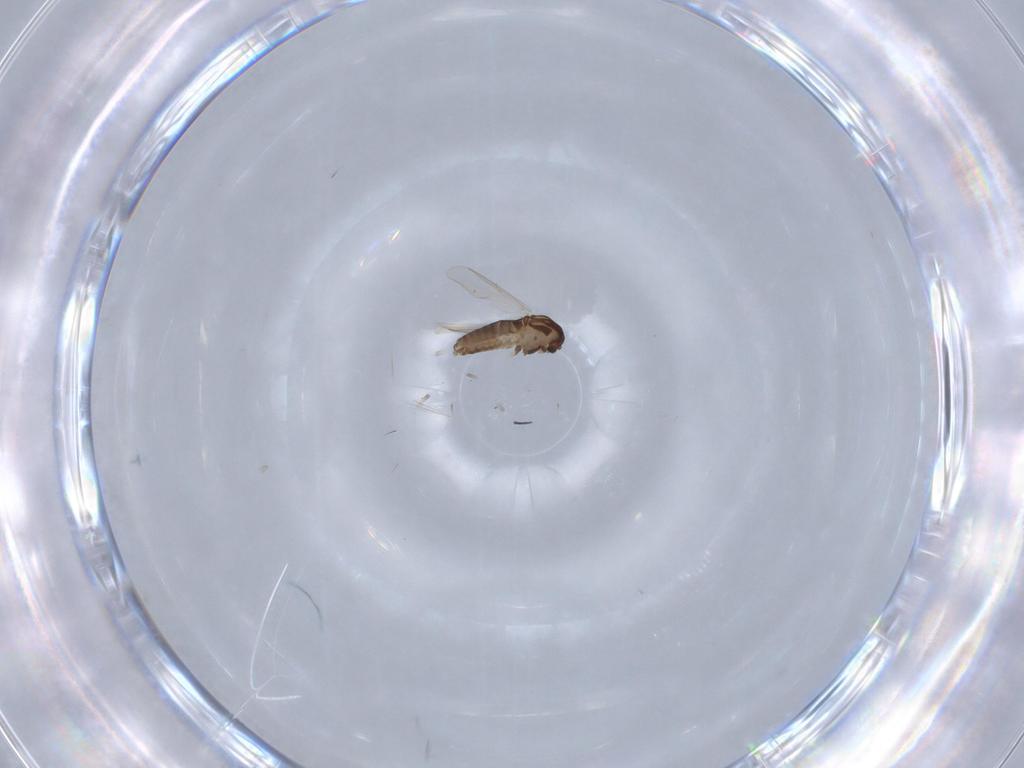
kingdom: Animalia
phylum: Arthropoda
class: Insecta
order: Diptera
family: Chironomidae
